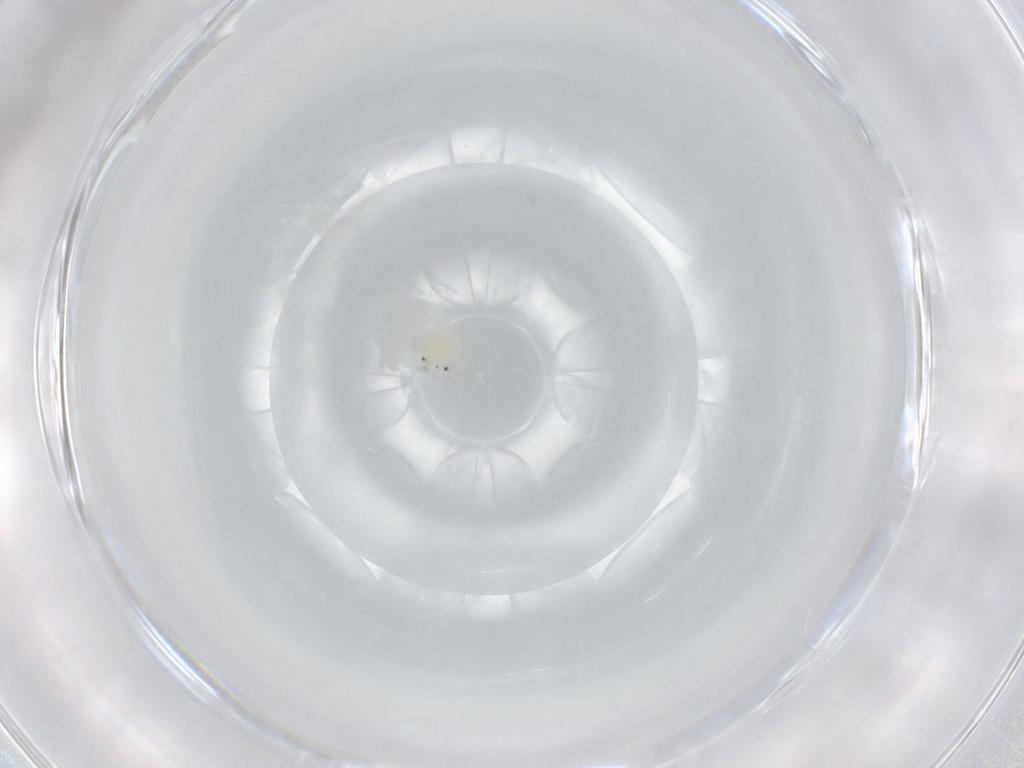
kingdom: Animalia
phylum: Arthropoda
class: Arachnida
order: Trombidiformes
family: Arrenuridae
